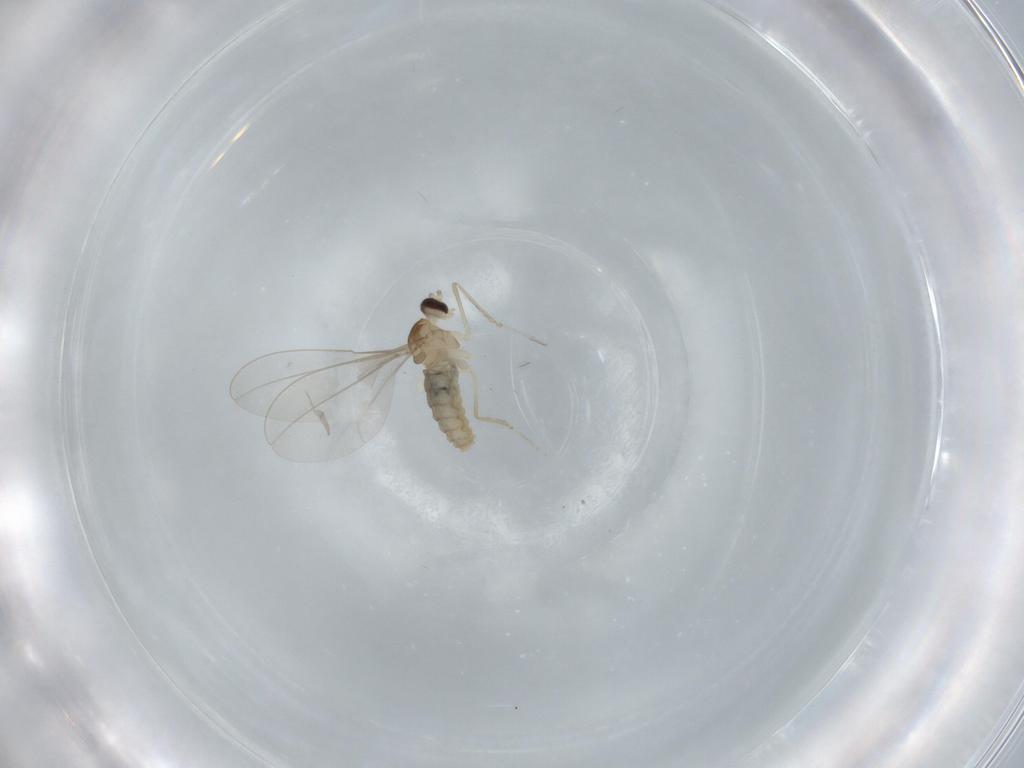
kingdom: Animalia
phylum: Arthropoda
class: Insecta
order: Diptera
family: Cecidomyiidae
